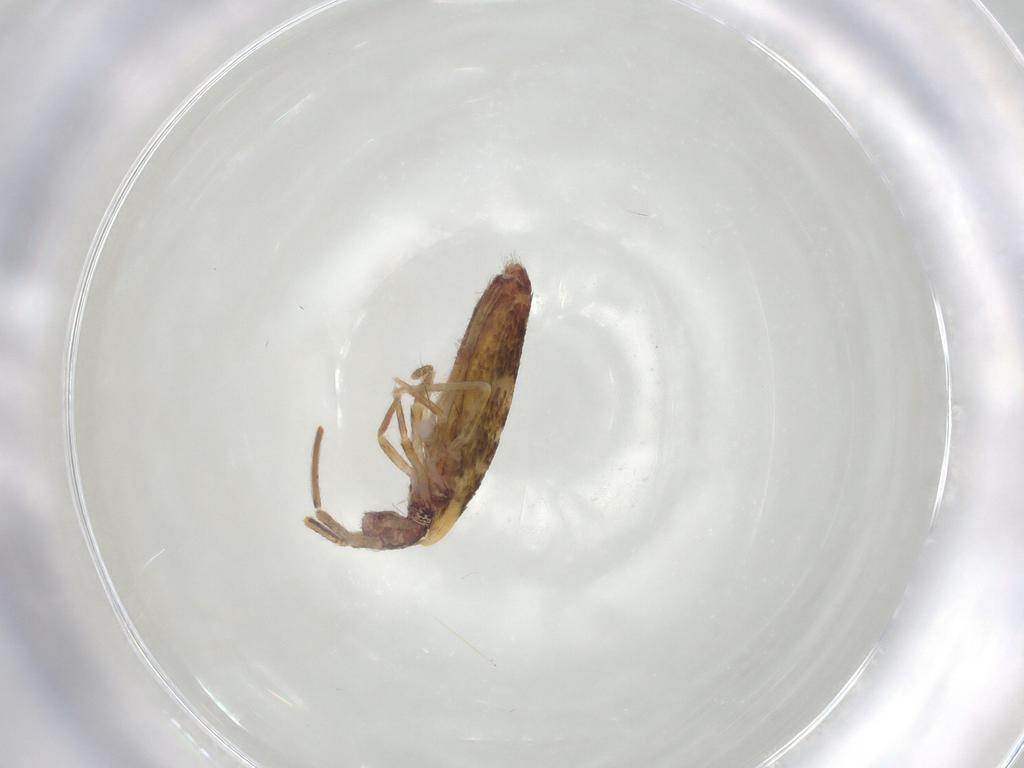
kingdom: Animalia
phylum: Arthropoda
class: Collembola
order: Entomobryomorpha
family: Entomobryidae
